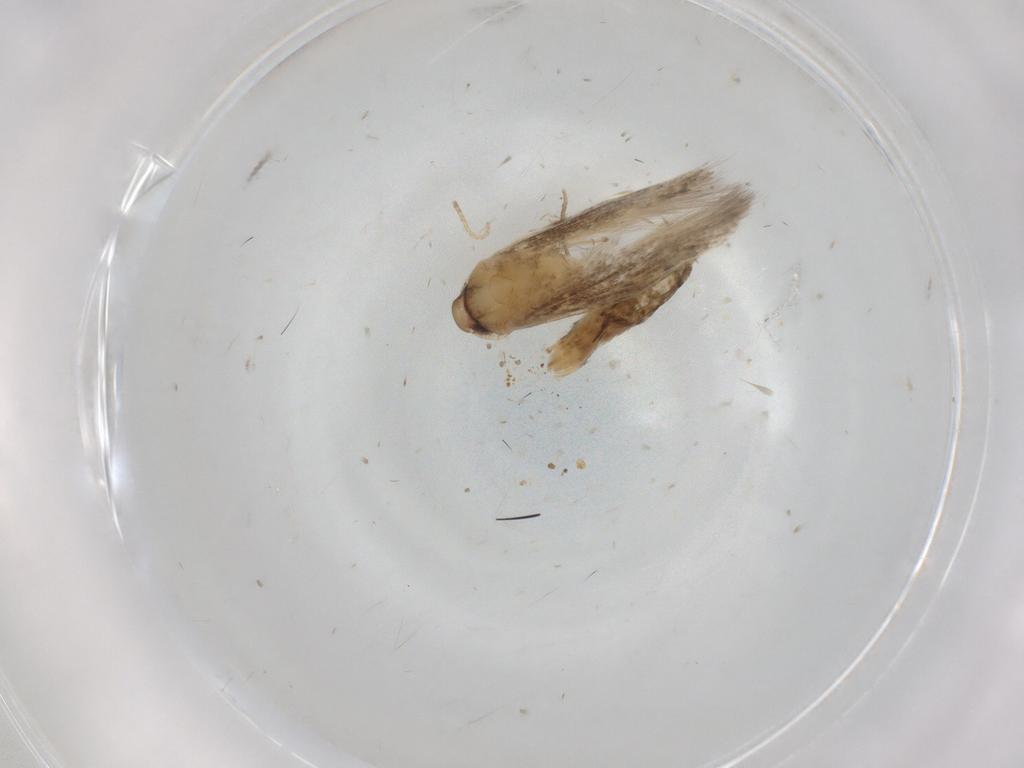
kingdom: Animalia
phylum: Arthropoda
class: Insecta
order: Lepidoptera
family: Cosmopterigidae
